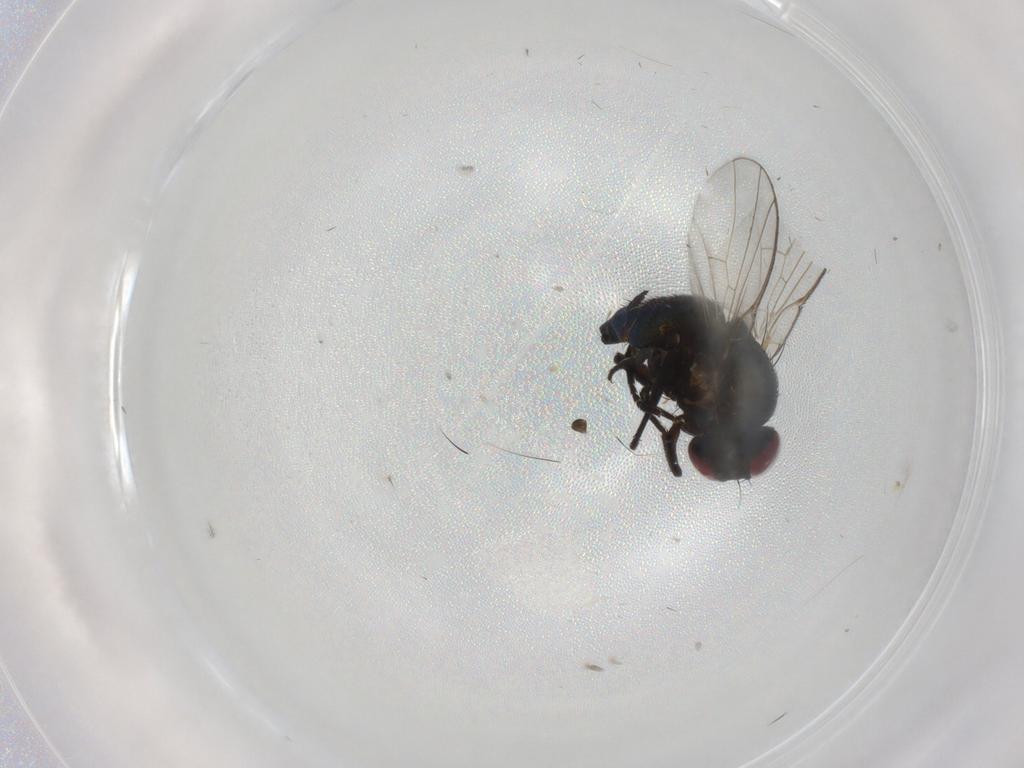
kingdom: Animalia
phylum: Arthropoda
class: Insecta
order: Diptera
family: Agromyzidae
